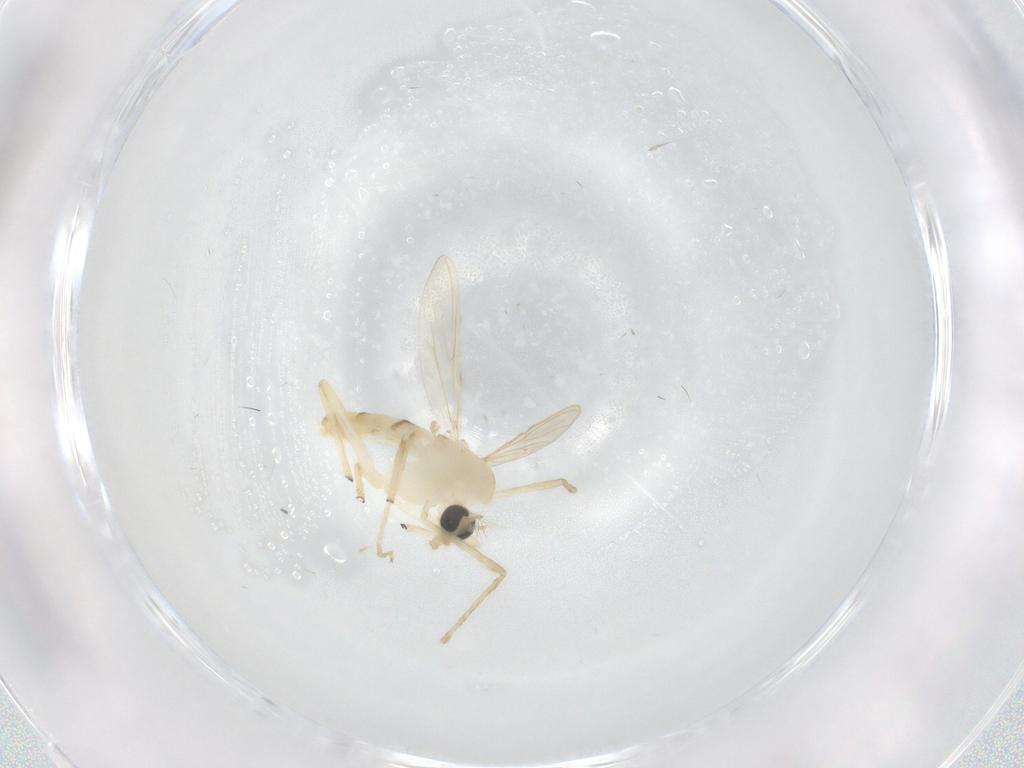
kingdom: Animalia
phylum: Arthropoda
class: Insecta
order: Diptera
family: Chironomidae
